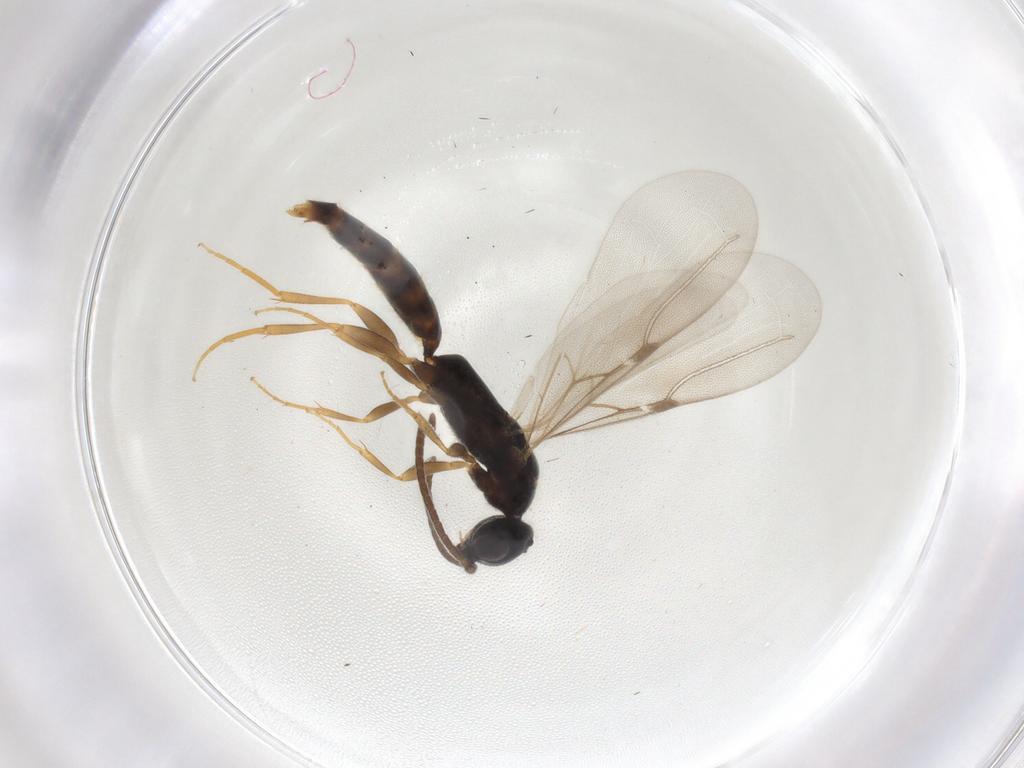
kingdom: Animalia
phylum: Arthropoda
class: Insecta
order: Hymenoptera
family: Bethylidae
